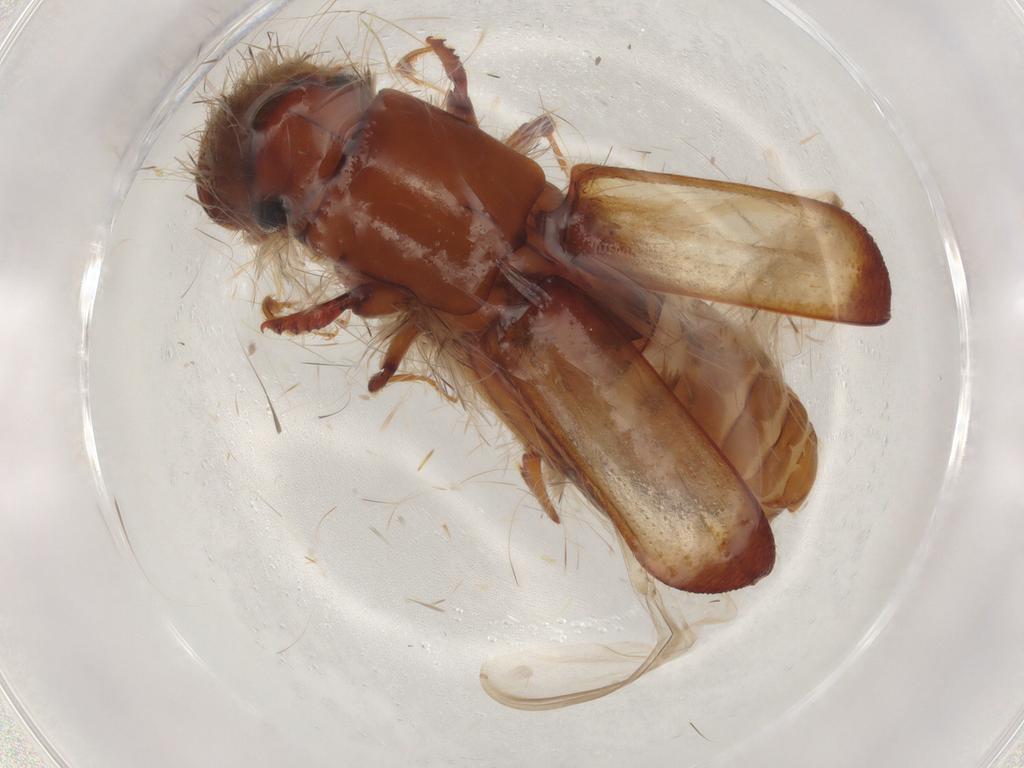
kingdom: Animalia
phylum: Arthropoda
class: Insecta
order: Coleoptera
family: Curculionidae
